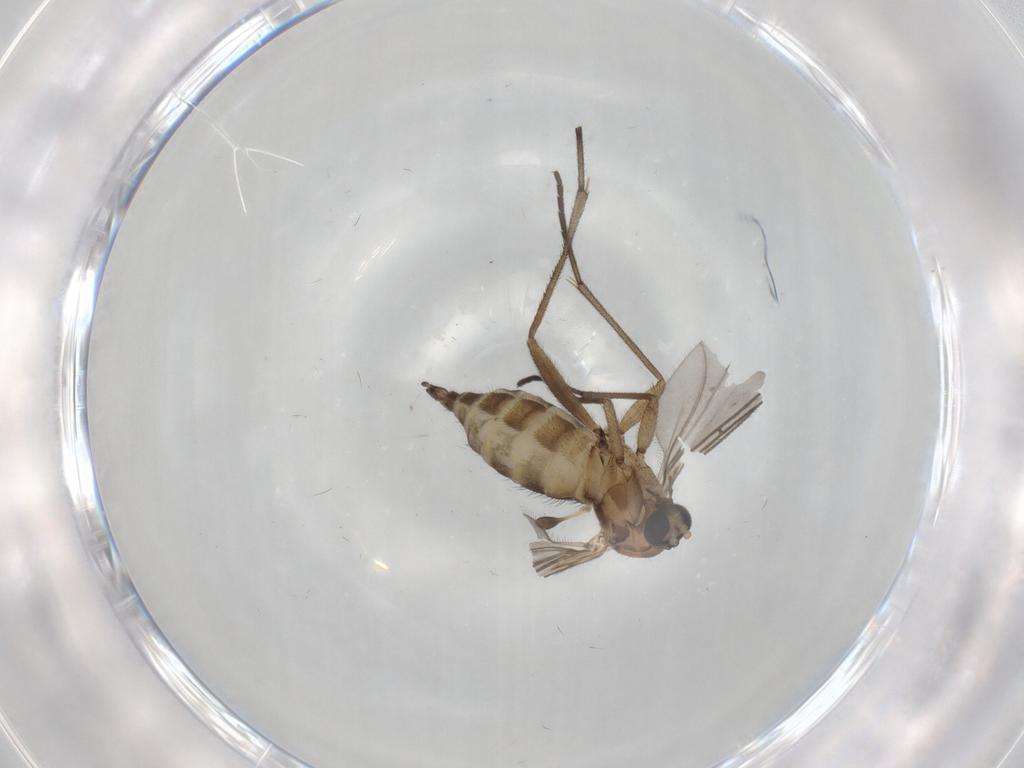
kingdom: Animalia
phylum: Arthropoda
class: Insecta
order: Diptera
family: Sciaridae
